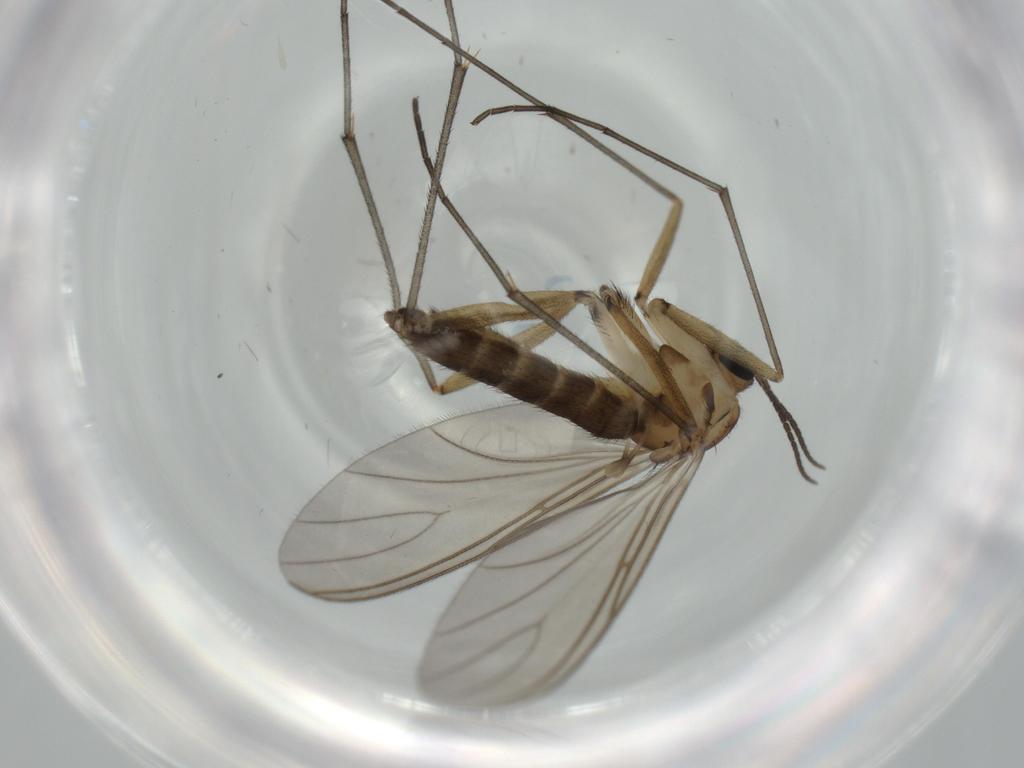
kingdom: Animalia
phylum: Arthropoda
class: Insecta
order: Diptera
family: Sciaridae
